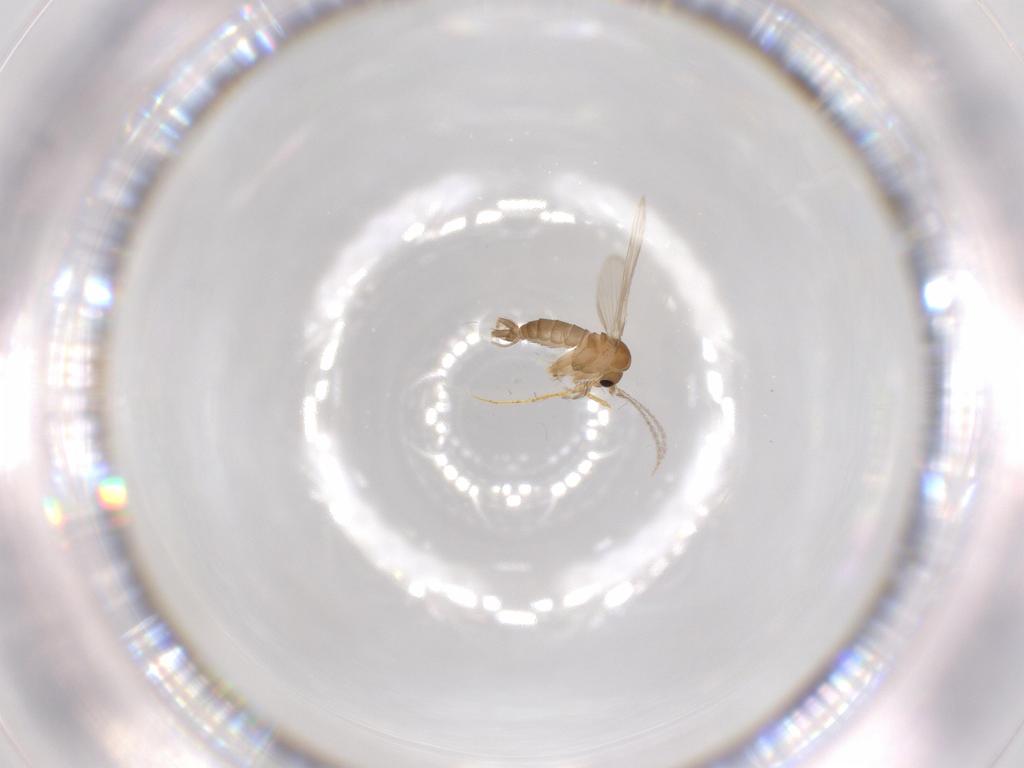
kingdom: Animalia
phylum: Arthropoda
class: Insecta
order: Diptera
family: Psychodidae
